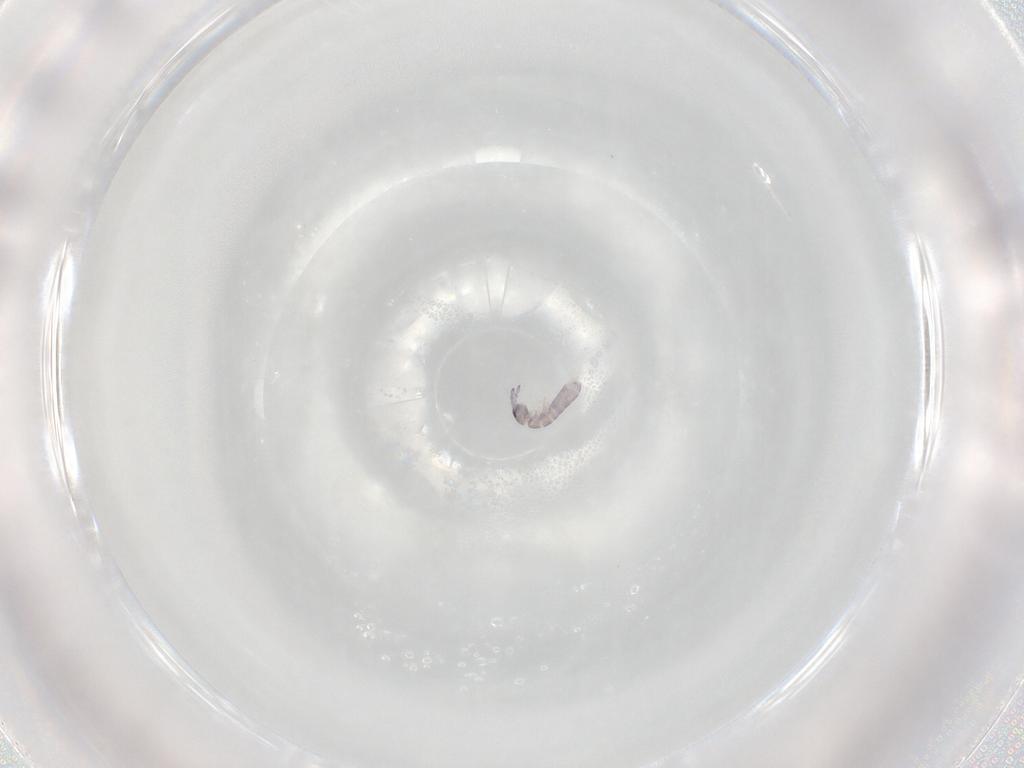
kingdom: Animalia
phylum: Arthropoda
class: Collembola
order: Entomobryomorpha
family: Isotomidae
